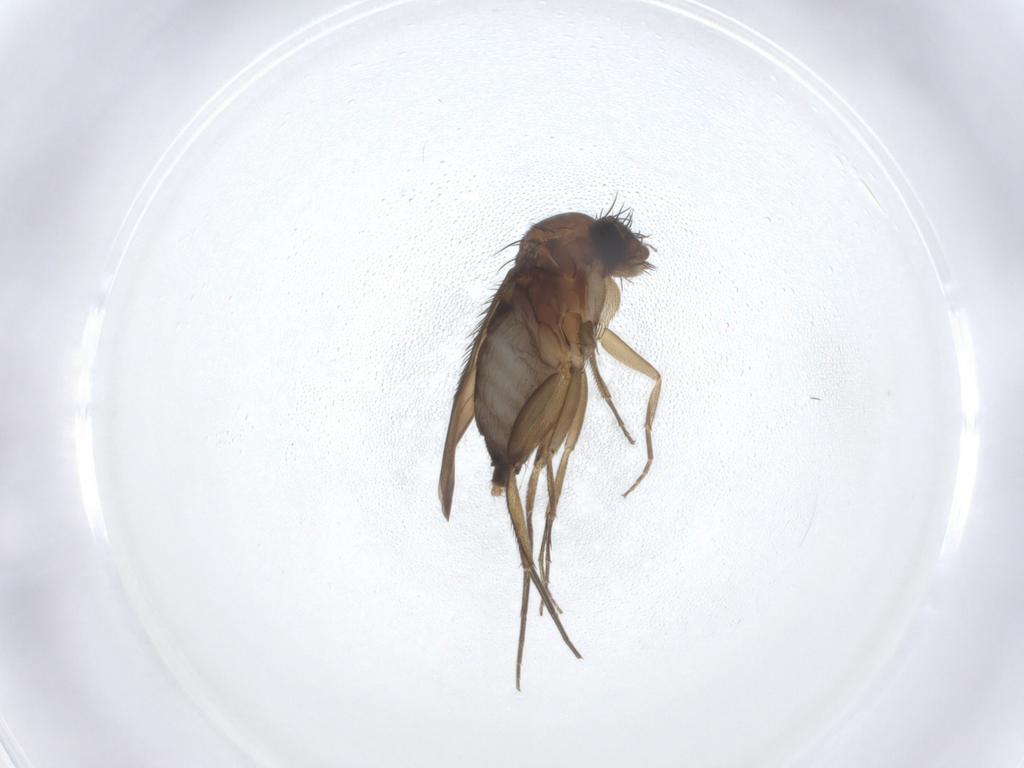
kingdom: Animalia
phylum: Arthropoda
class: Insecta
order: Diptera
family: Phoridae
